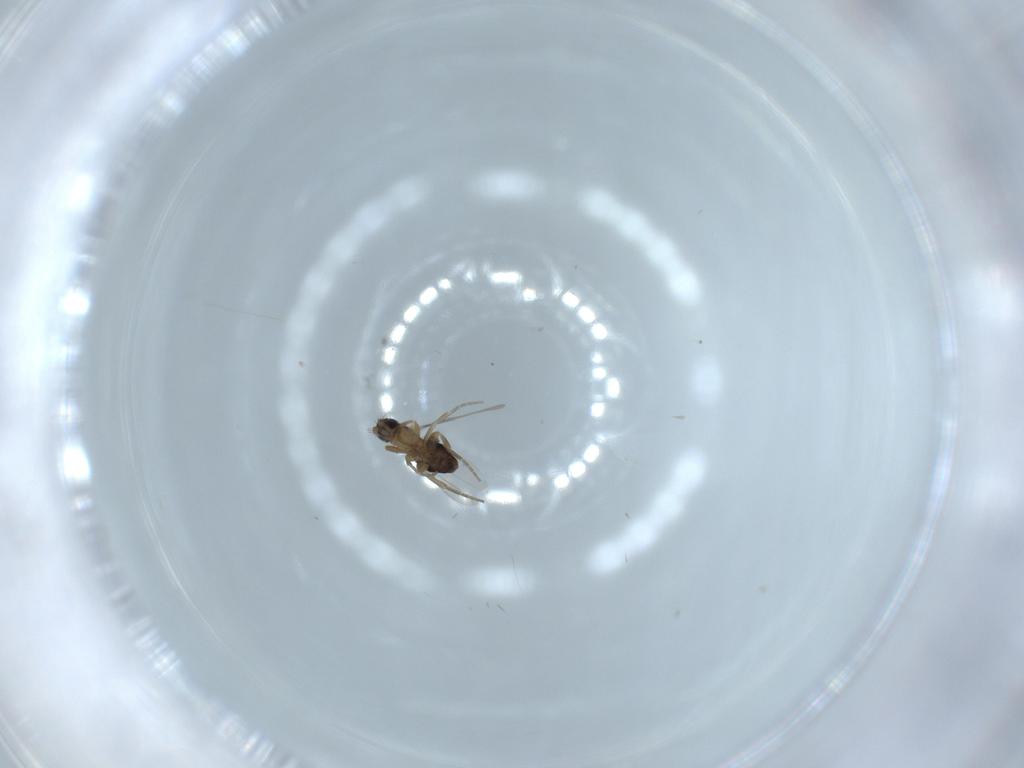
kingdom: Animalia
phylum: Arthropoda
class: Insecta
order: Diptera
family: Phoridae
